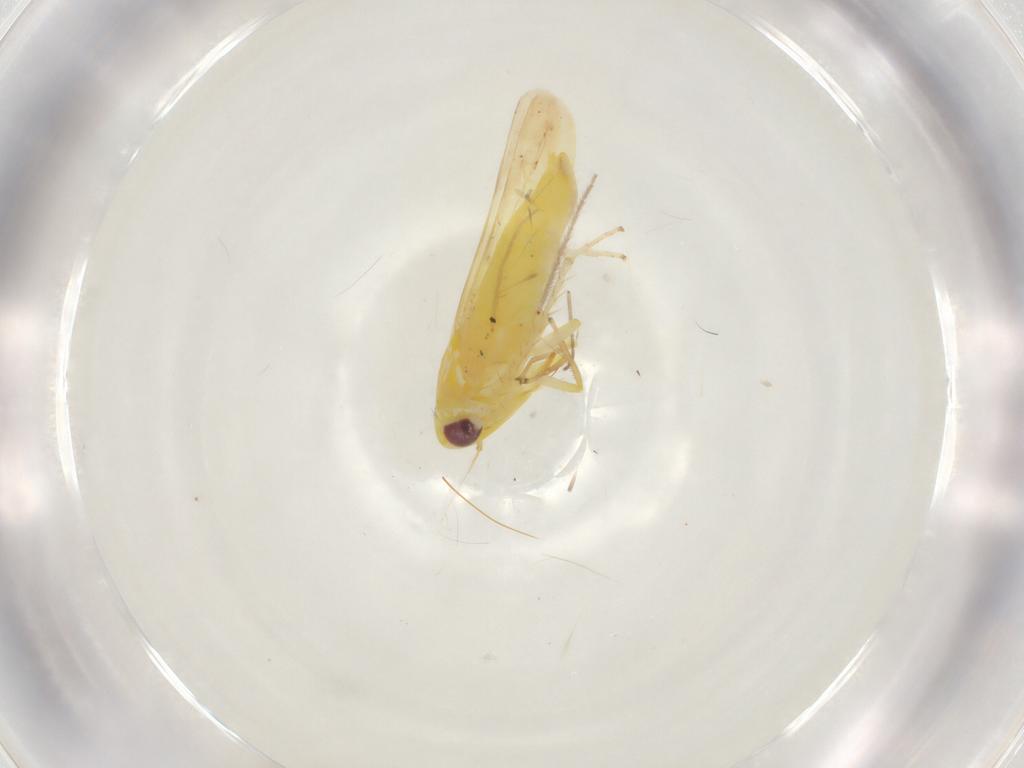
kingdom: Animalia
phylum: Arthropoda
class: Insecta
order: Hemiptera
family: Cicadellidae
